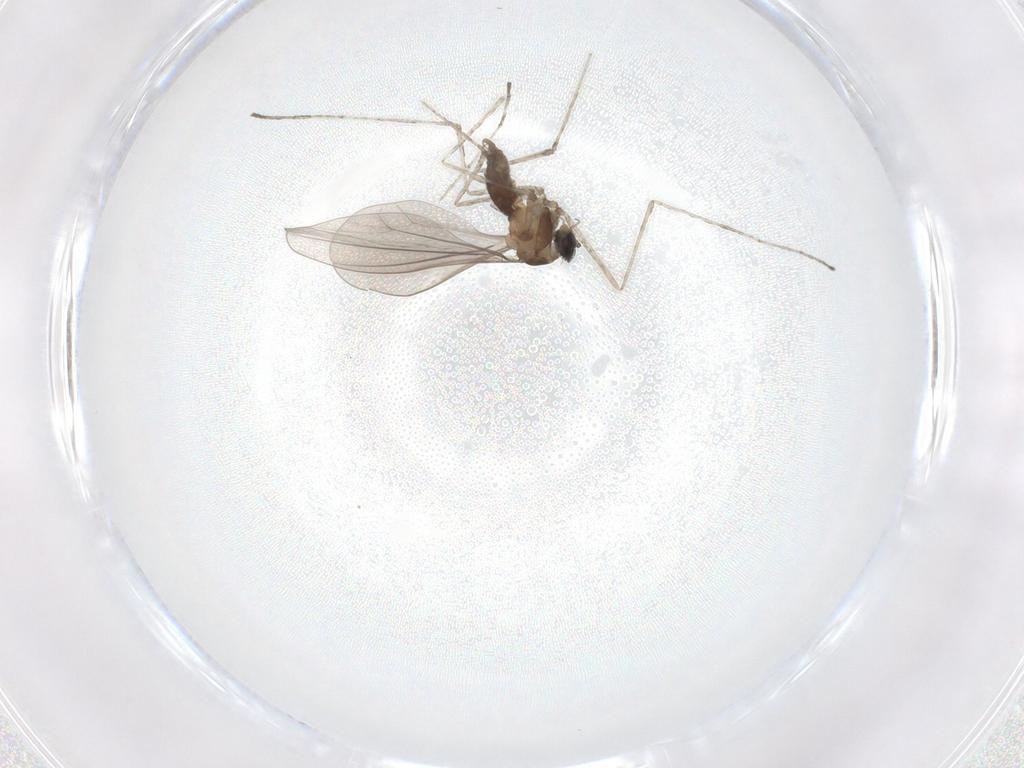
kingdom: Animalia
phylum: Arthropoda
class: Insecta
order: Diptera
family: Cecidomyiidae
